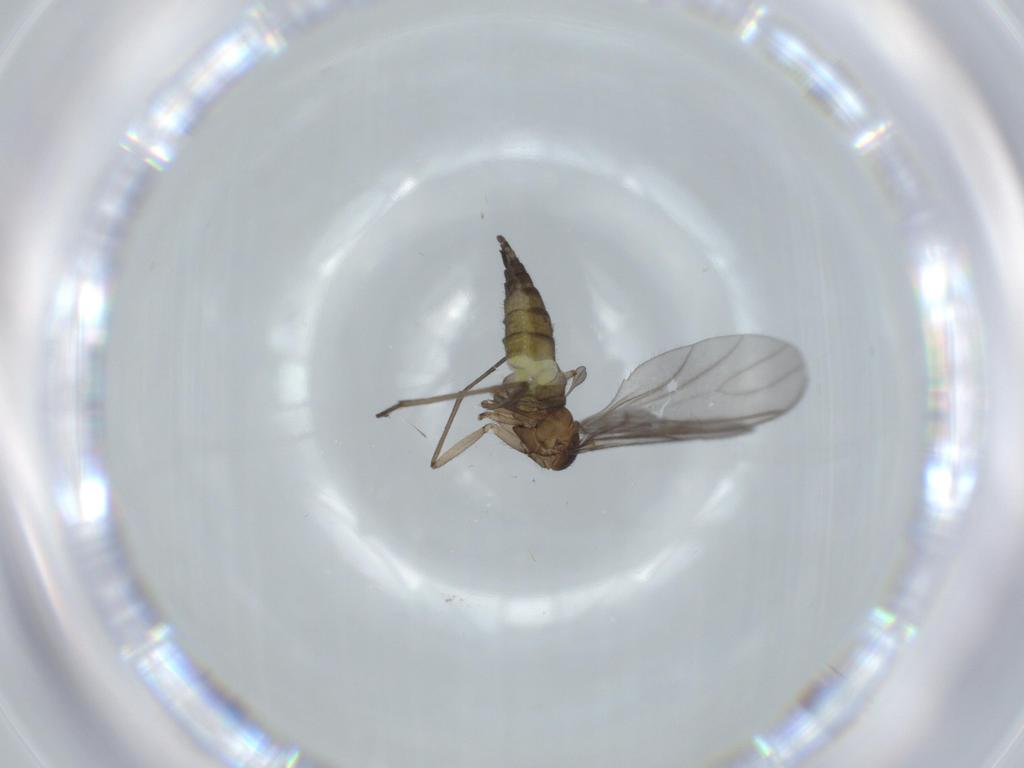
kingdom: Animalia
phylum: Arthropoda
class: Insecta
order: Diptera
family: Sciaridae
